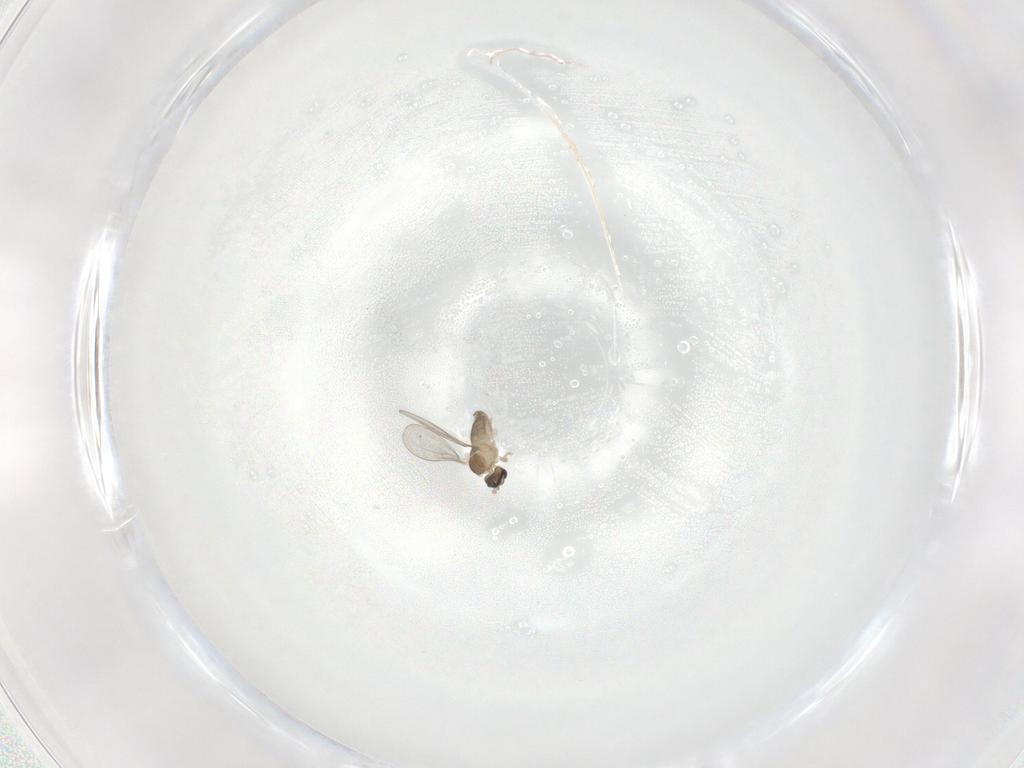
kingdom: Animalia
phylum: Arthropoda
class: Insecta
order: Diptera
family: Cecidomyiidae
